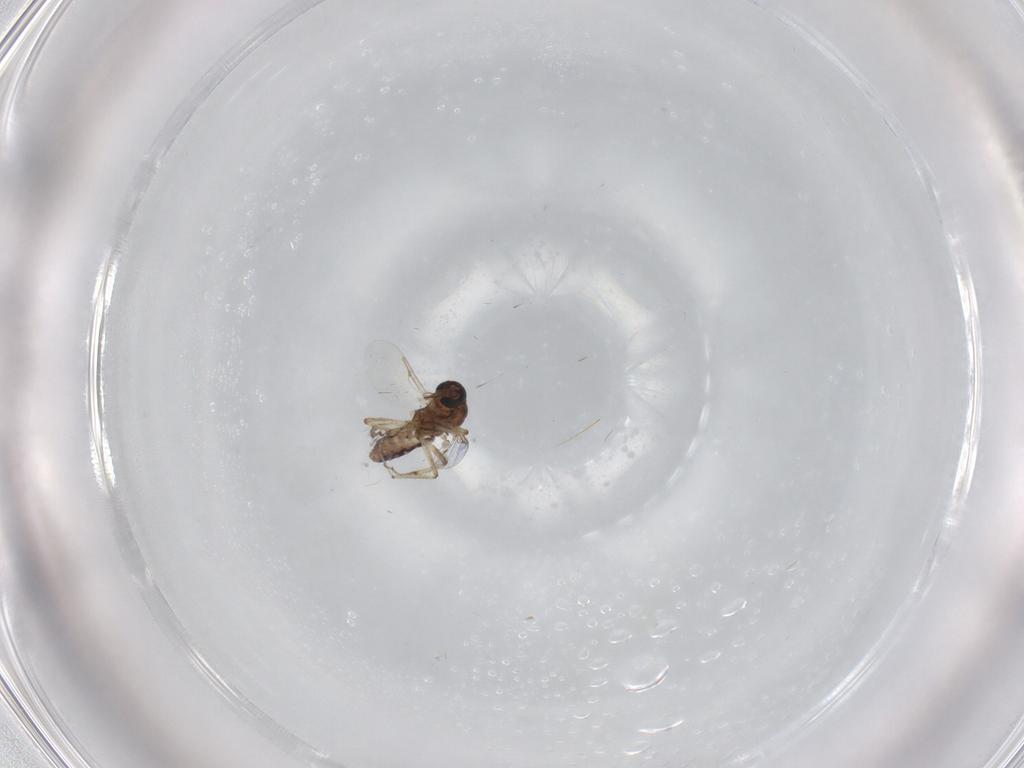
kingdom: Animalia
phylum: Arthropoda
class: Insecta
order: Diptera
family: Ceratopogonidae
